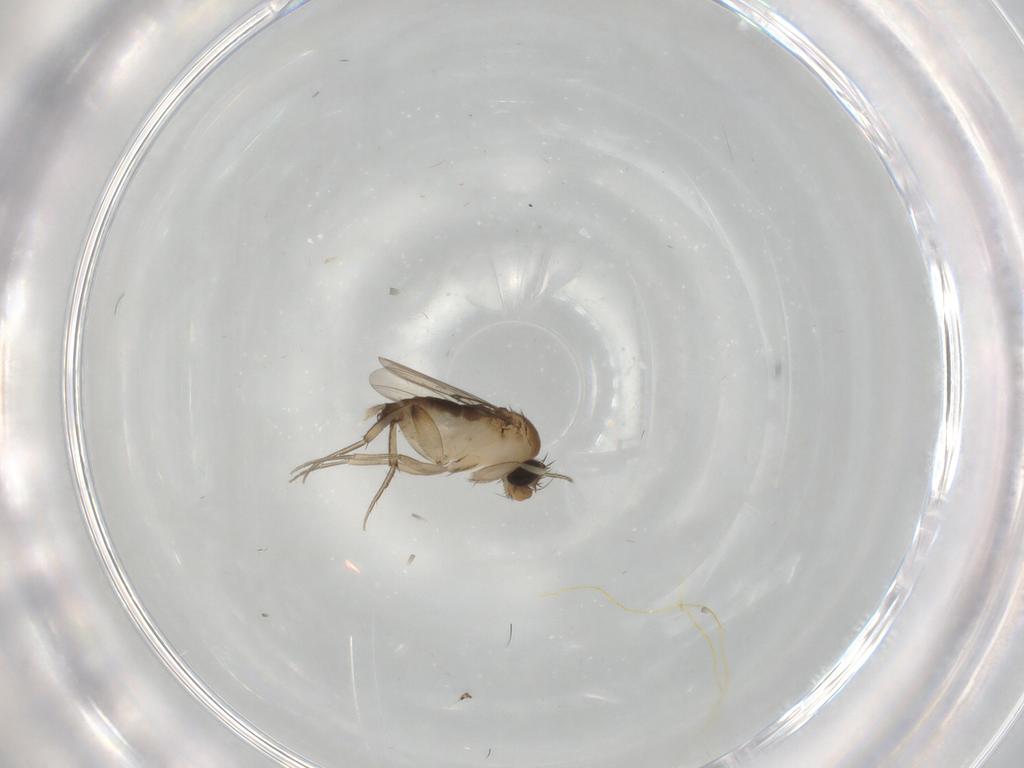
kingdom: Animalia
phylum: Arthropoda
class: Insecta
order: Diptera
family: Phoridae
